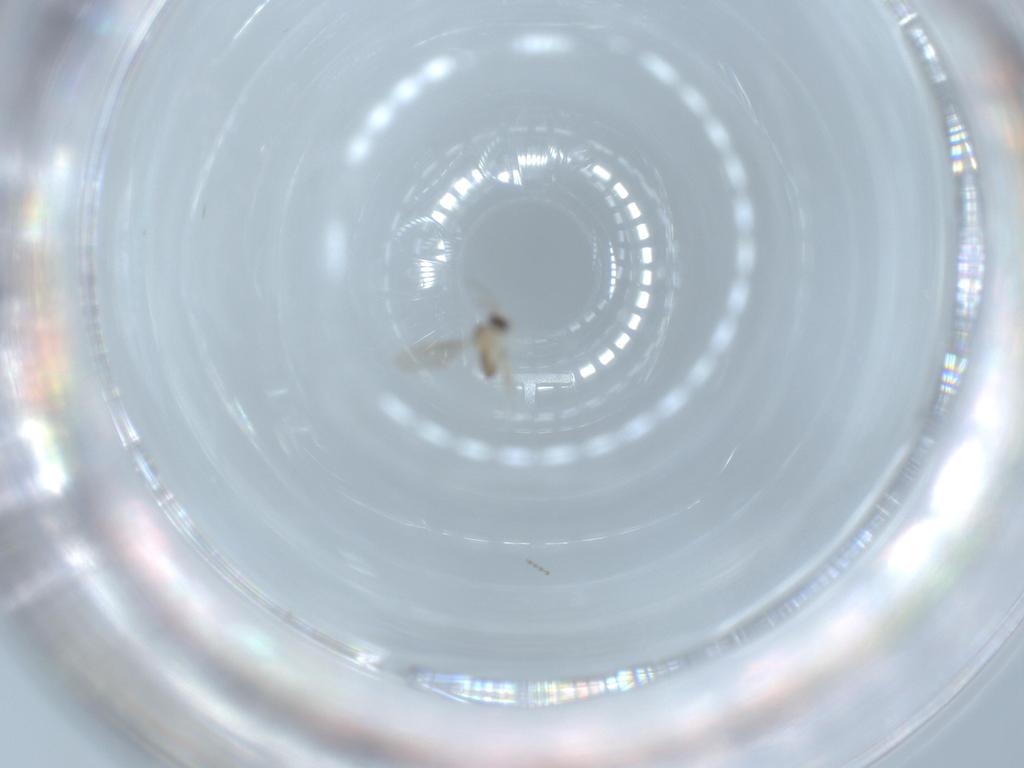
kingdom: Animalia
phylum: Arthropoda
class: Insecta
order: Diptera
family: Cecidomyiidae
